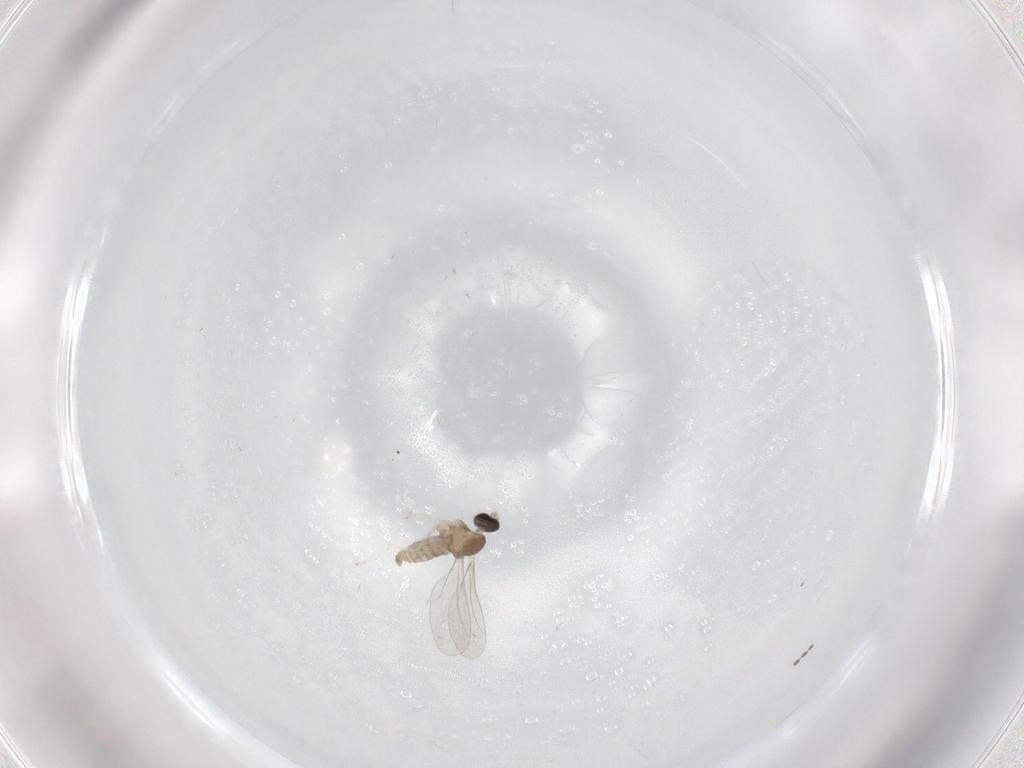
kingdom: Animalia
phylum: Arthropoda
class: Insecta
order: Diptera
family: Cecidomyiidae
